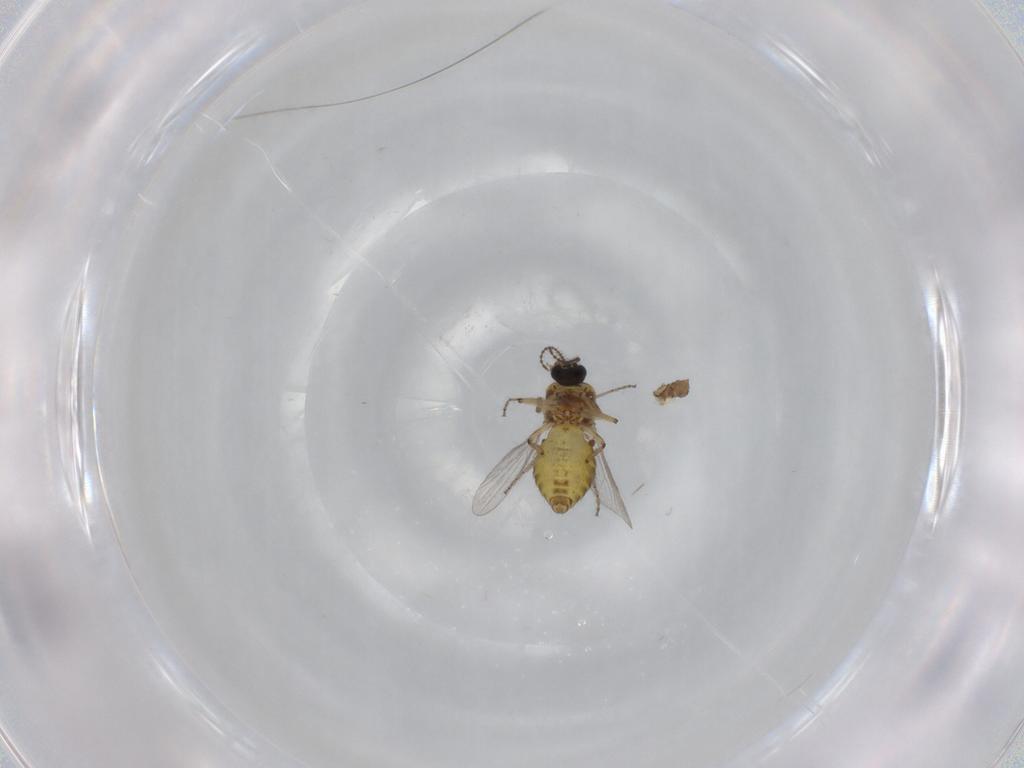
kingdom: Animalia
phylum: Arthropoda
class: Insecta
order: Diptera
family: Ceratopogonidae
